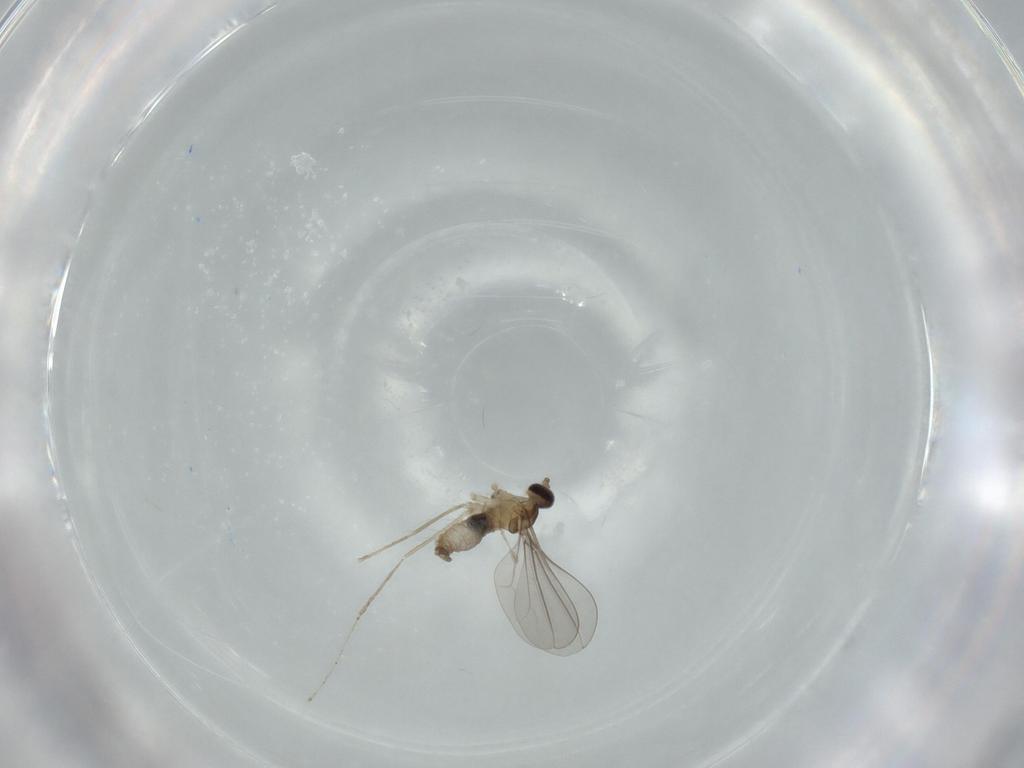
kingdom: Animalia
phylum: Arthropoda
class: Insecta
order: Diptera
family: Cecidomyiidae
